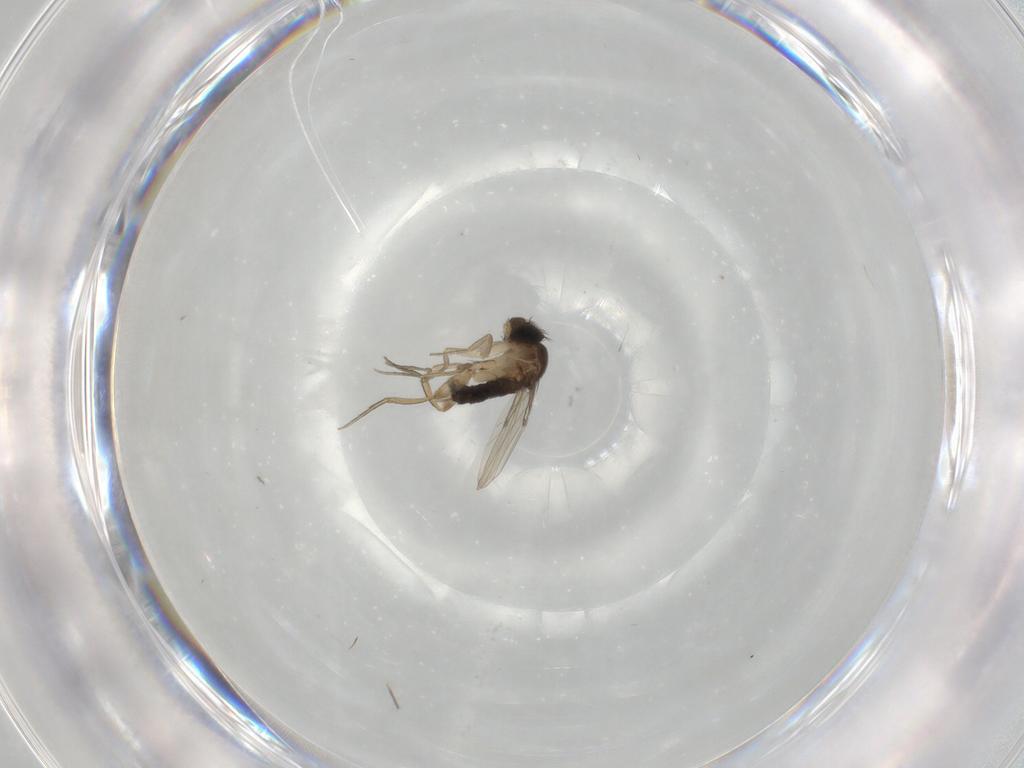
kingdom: Animalia
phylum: Arthropoda
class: Insecta
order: Diptera
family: Phoridae
